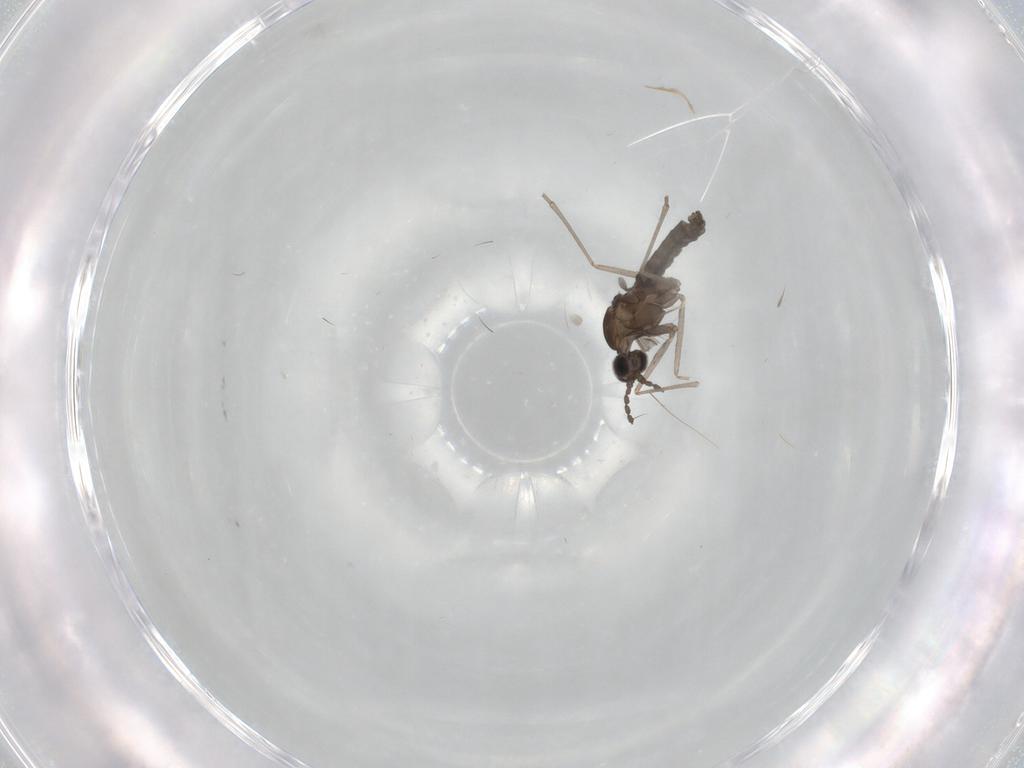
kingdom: Animalia
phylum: Arthropoda
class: Insecta
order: Diptera
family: Cecidomyiidae
